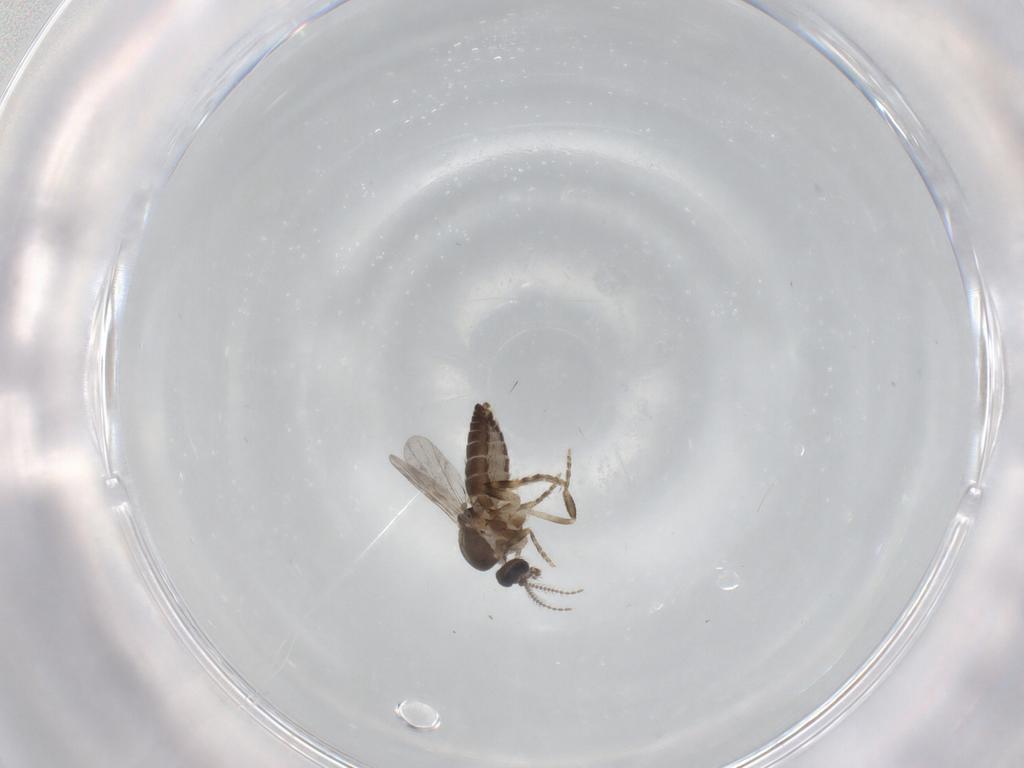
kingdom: Animalia
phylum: Arthropoda
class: Insecta
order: Diptera
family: Ceratopogonidae
